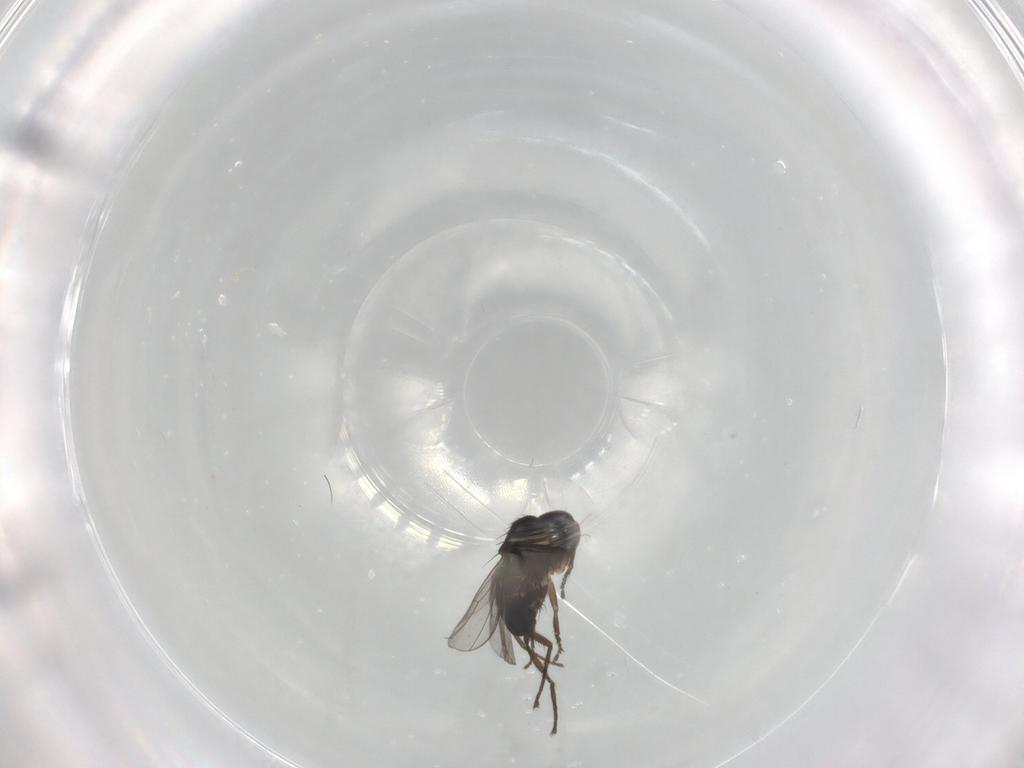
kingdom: Animalia
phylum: Arthropoda
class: Insecta
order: Diptera
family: Dolichopodidae
